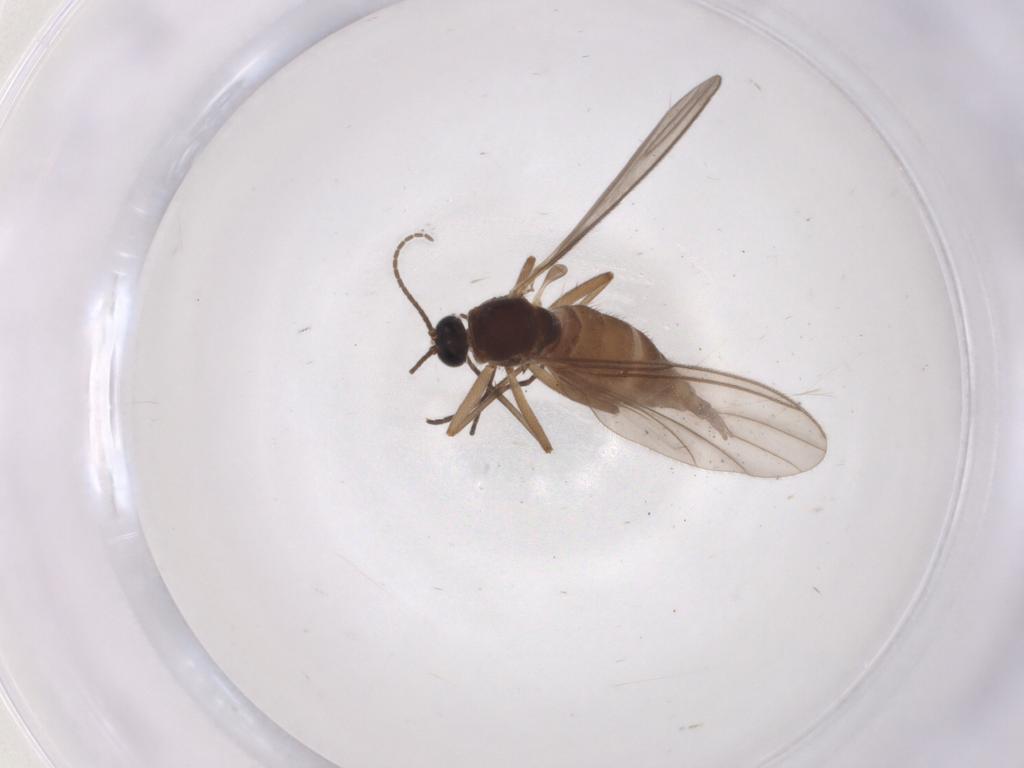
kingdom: Animalia
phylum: Arthropoda
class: Insecta
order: Diptera
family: Sciaridae
